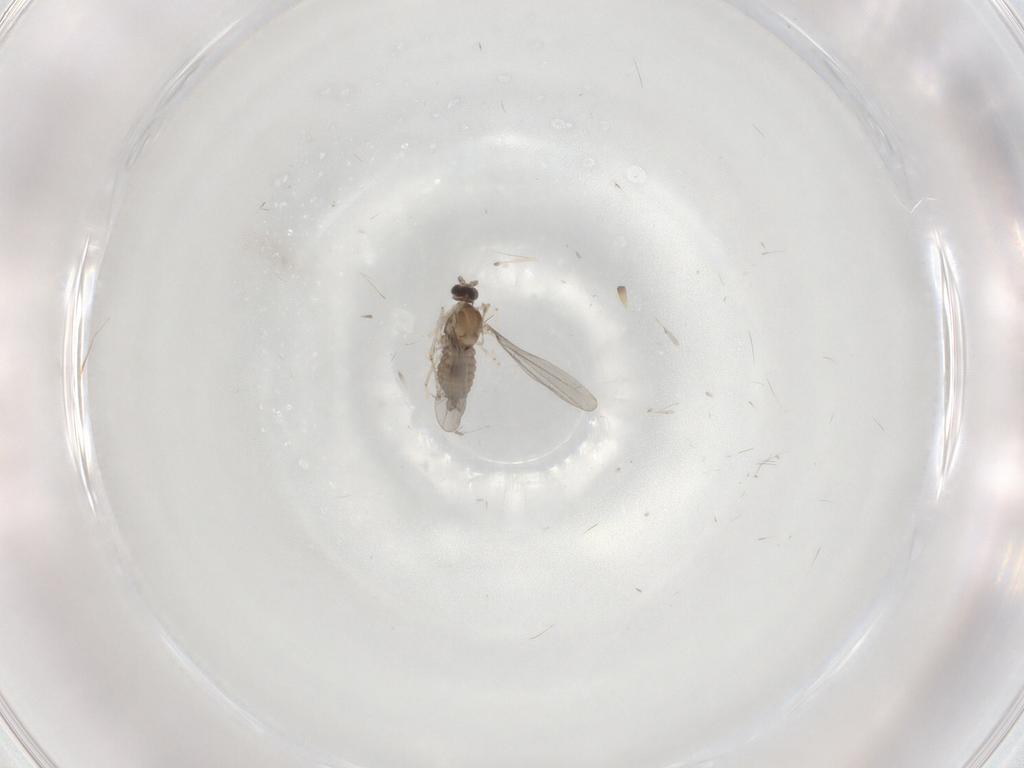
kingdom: Animalia
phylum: Arthropoda
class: Insecta
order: Diptera
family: Cecidomyiidae
